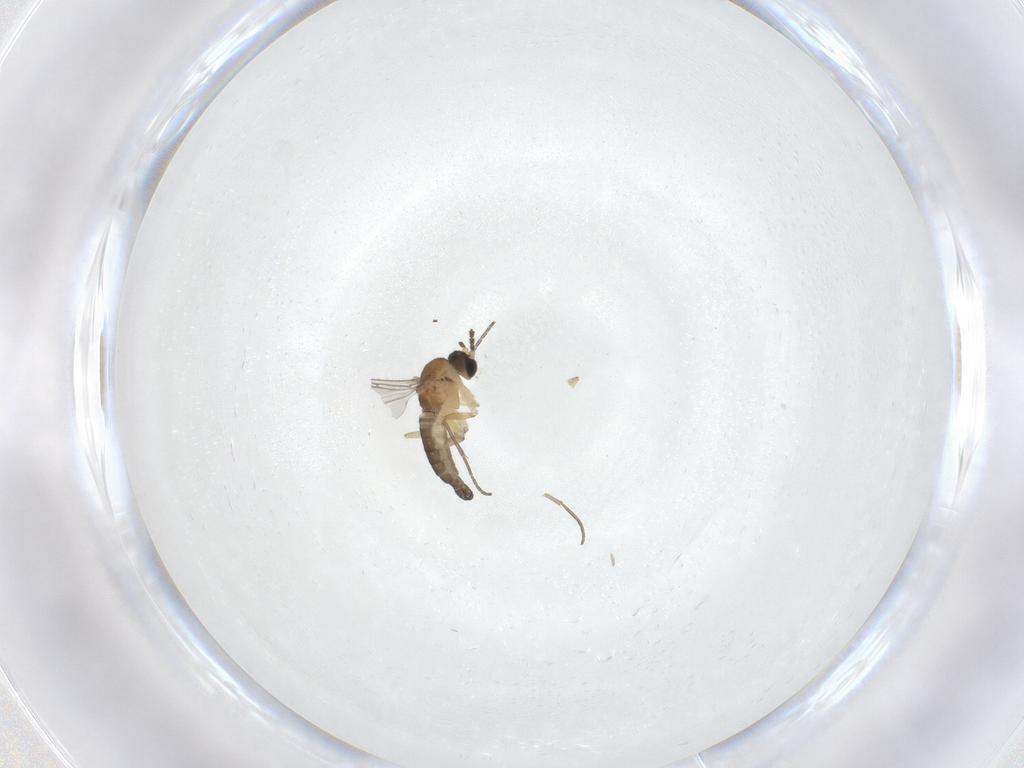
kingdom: Animalia
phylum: Arthropoda
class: Insecta
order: Diptera
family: Sciaridae
